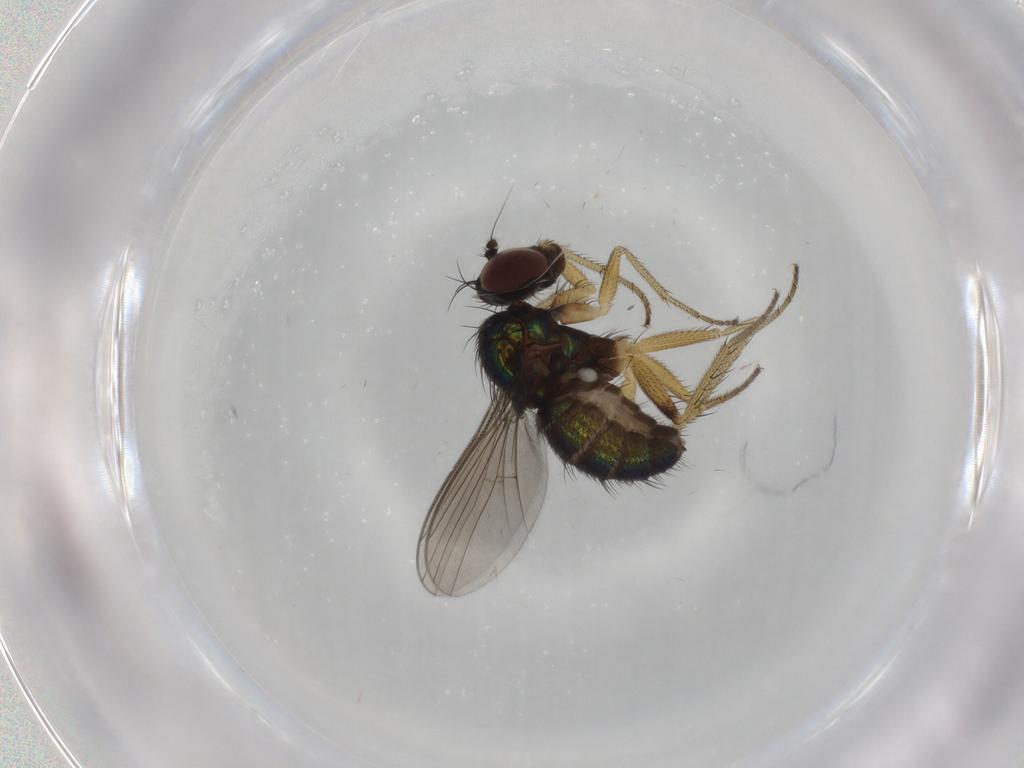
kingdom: Animalia
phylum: Arthropoda
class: Insecta
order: Diptera
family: Dolichopodidae
